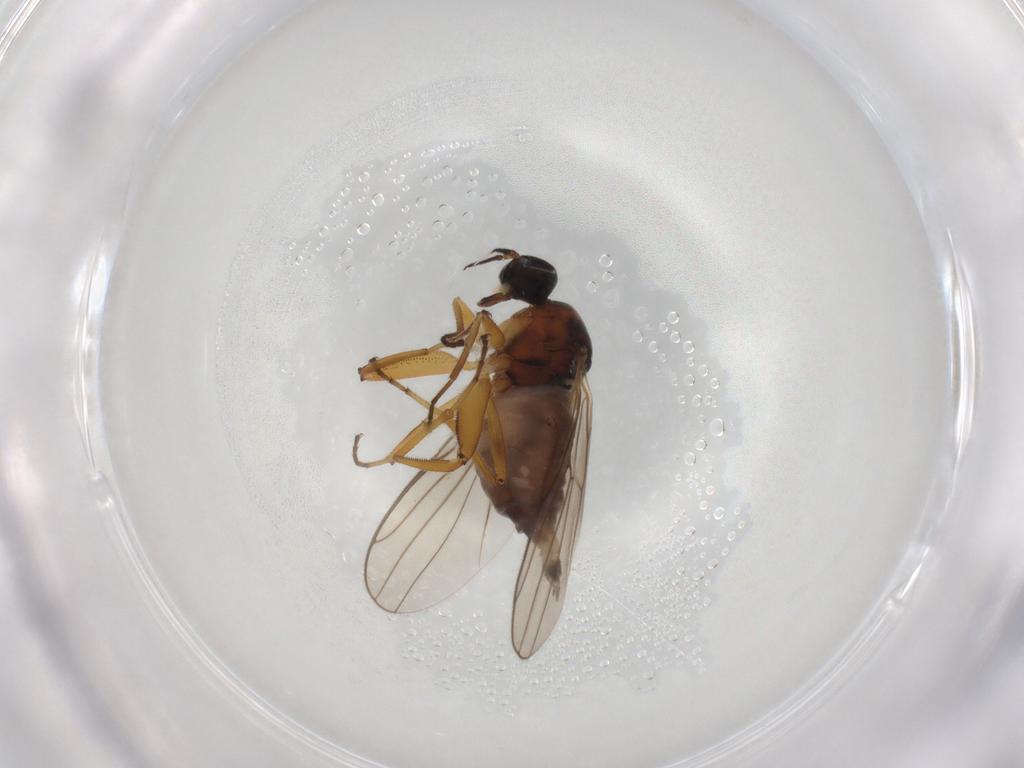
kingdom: Animalia
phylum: Arthropoda
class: Insecta
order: Diptera
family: Hybotidae
